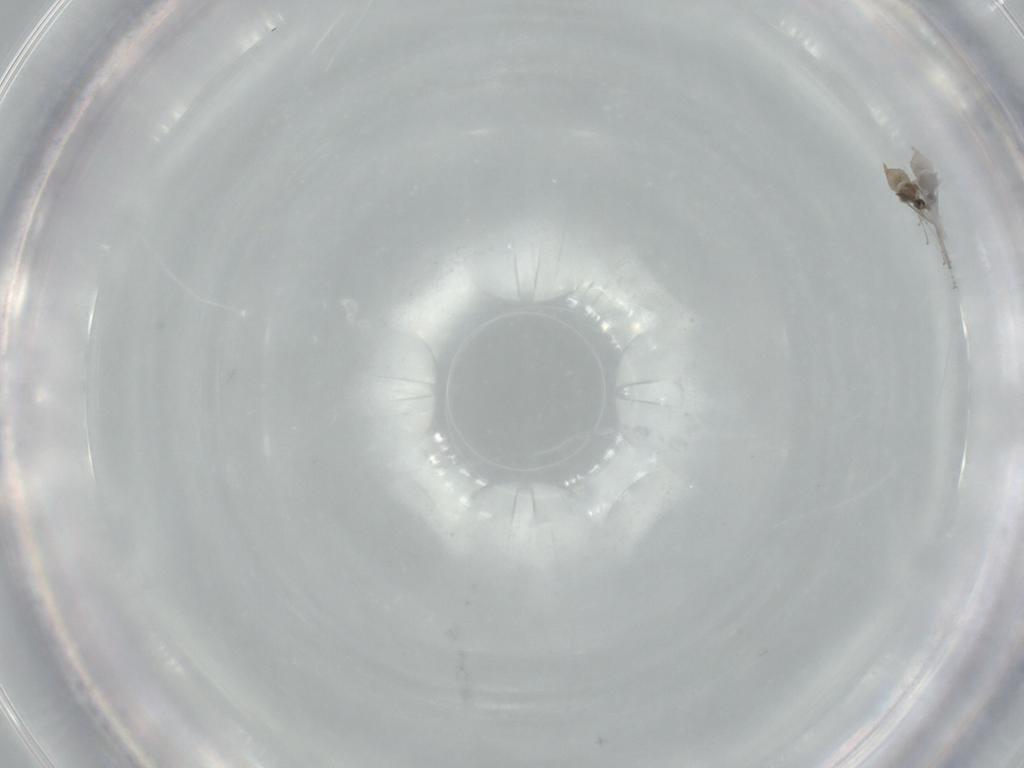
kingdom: Animalia
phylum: Arthropoda
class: Insecta
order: Diptera
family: Cecidomyiidae
